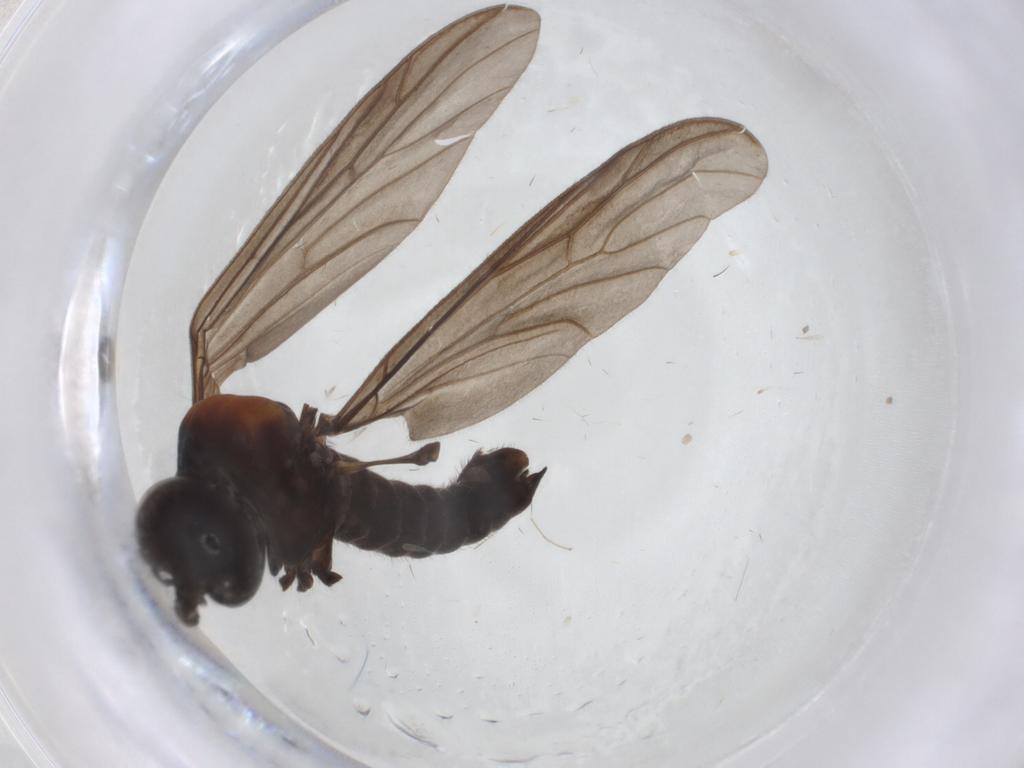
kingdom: Animalia
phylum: Arthropoda
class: Insecta
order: Diptera
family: Cecidomyiidae
